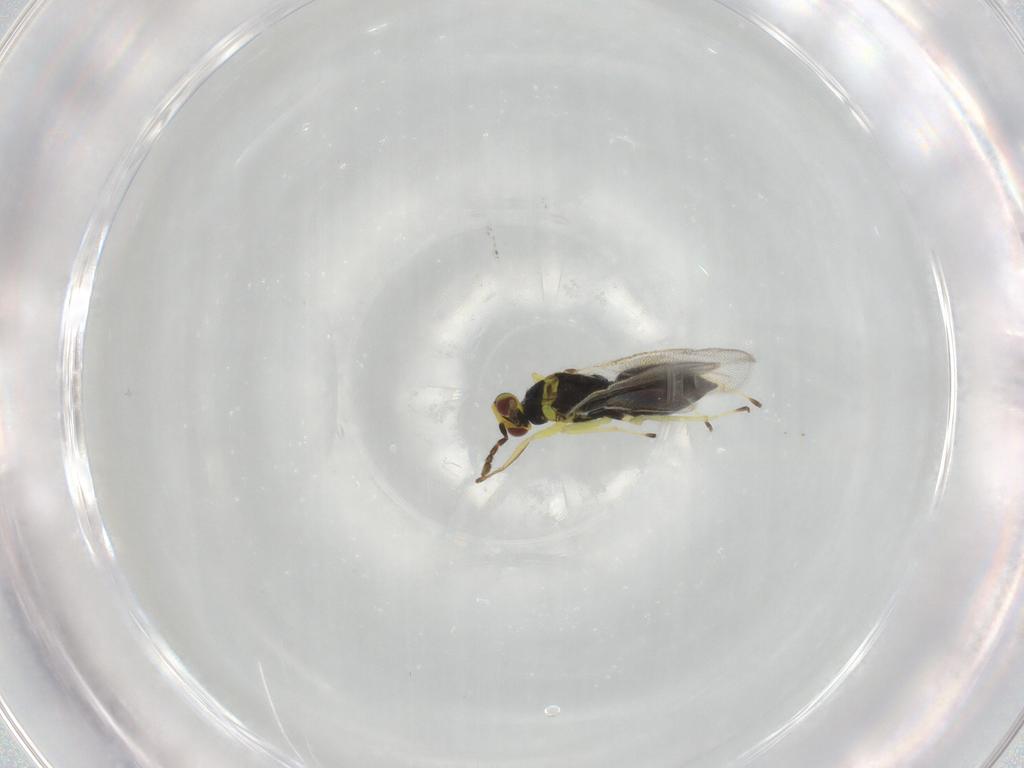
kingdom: Animalia
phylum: Arthropoda
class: Insecta
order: Hymenoptera
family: Eulophidae
